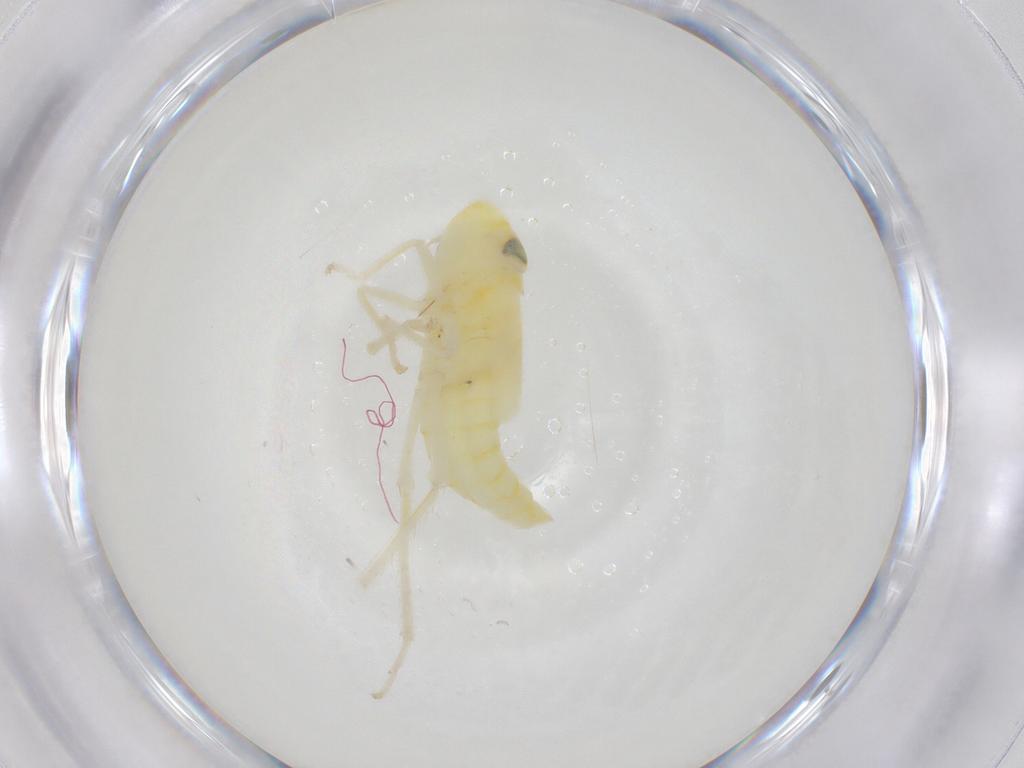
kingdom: Animalia
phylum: Arthropoda
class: Insecta
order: Hemiptera
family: Cicadellidae
